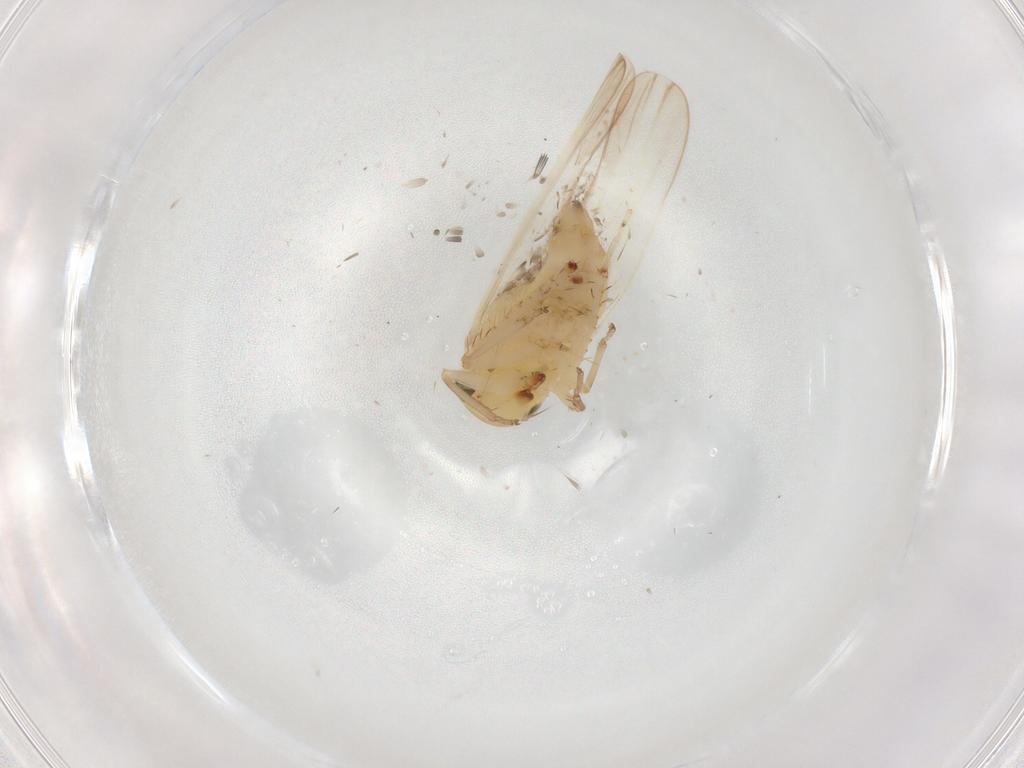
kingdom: Animalia
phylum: Arthropoda
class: Insecta
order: Hemiptera
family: Cicadellidae
